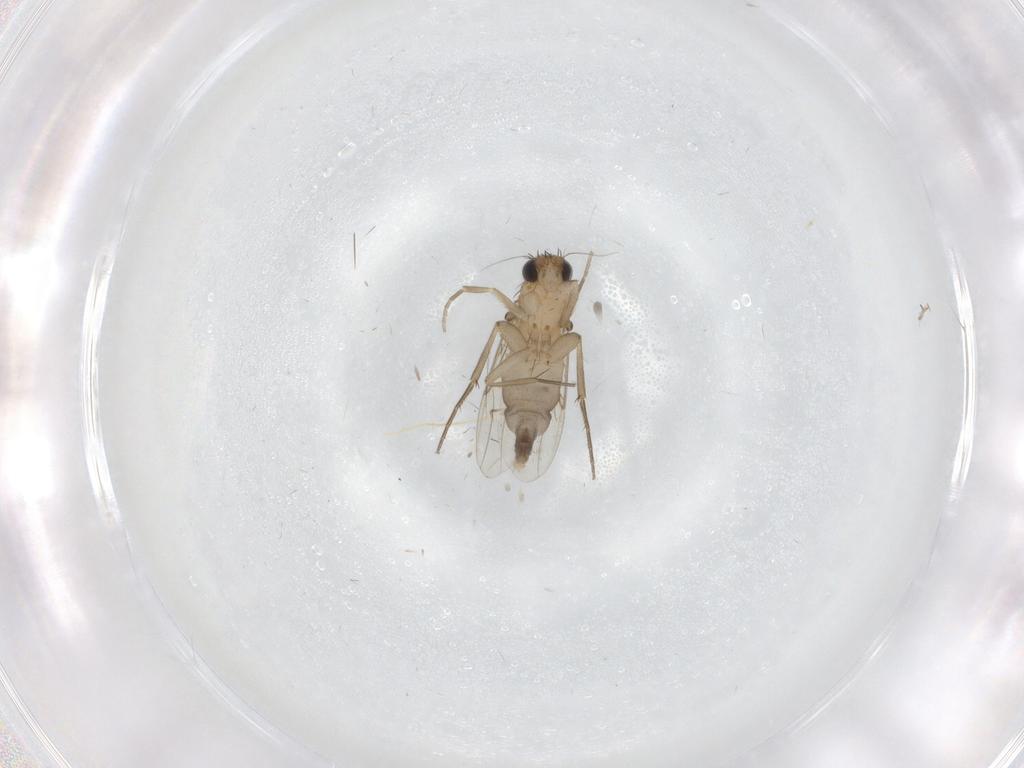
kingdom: Animalia
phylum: Arthropoda
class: Insecta
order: Diptera
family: Phoridae
